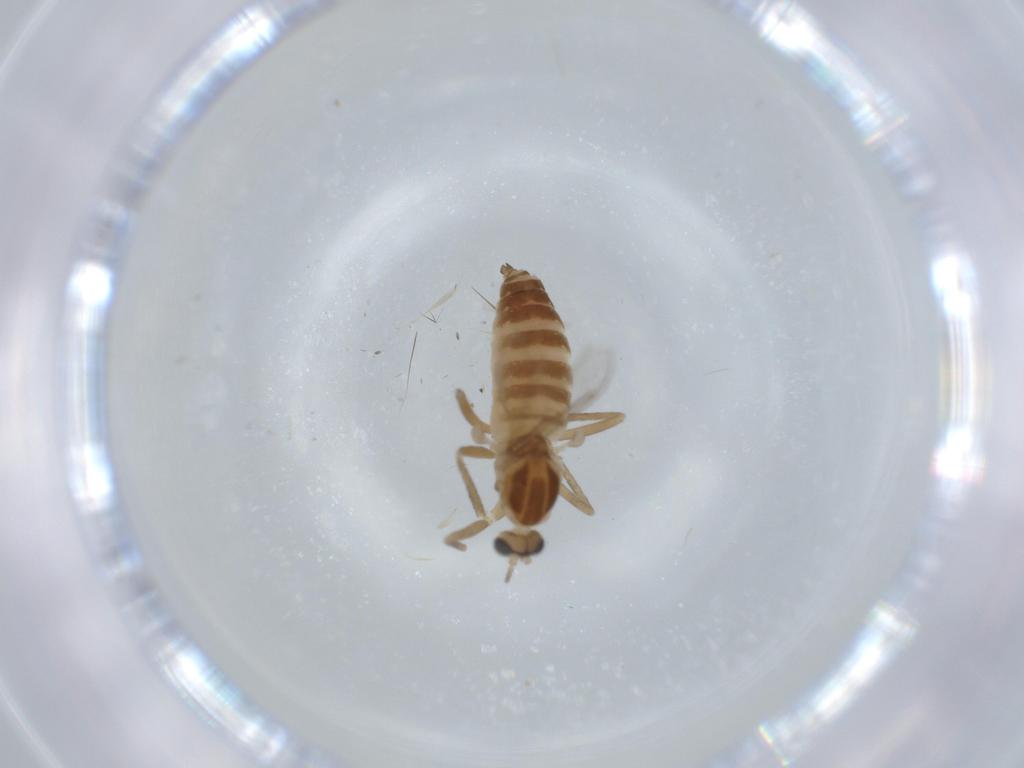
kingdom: Animalia
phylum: Arthropoda
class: Insecta
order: Diptera
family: Cecidomyiidae
